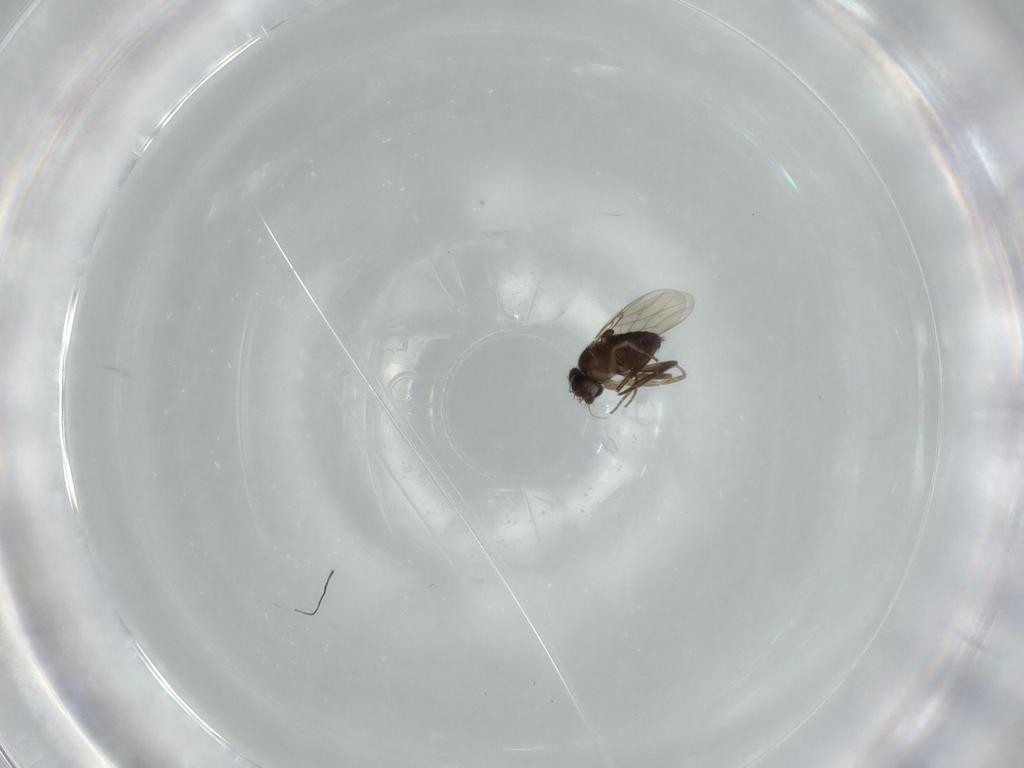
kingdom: Animalia
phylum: Arthropoda
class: Insecta
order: Diptera
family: Phoridae
